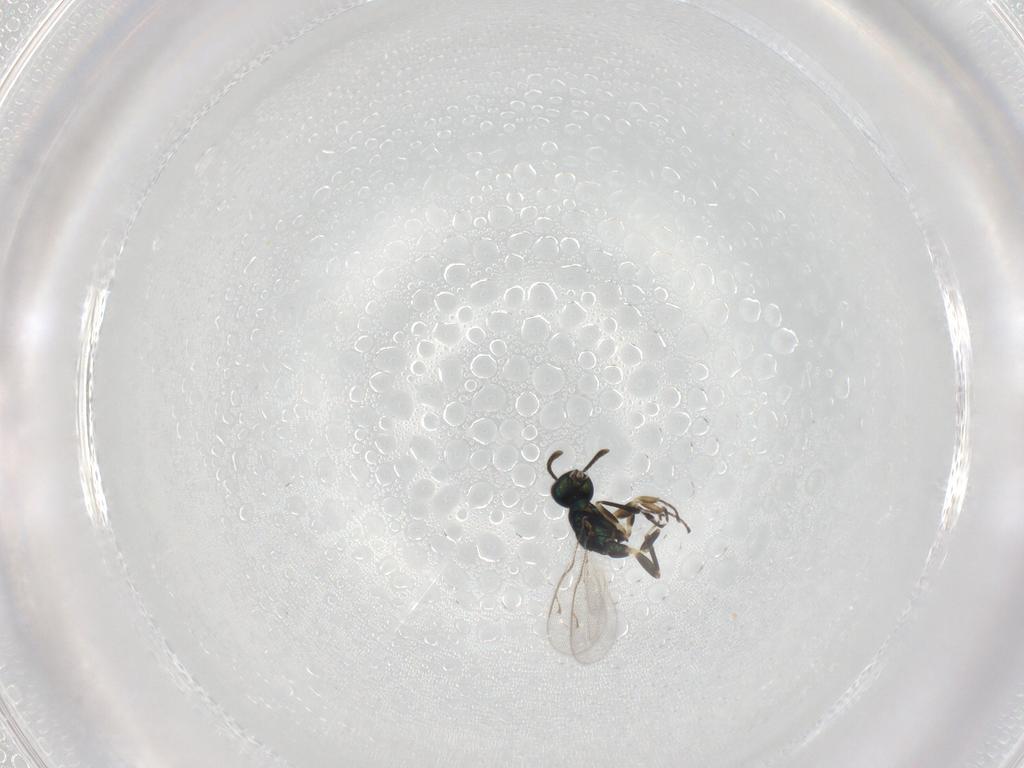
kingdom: Animalia
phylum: Arthropoda
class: Insecta
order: Hymenoptera
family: Eupelmidae
